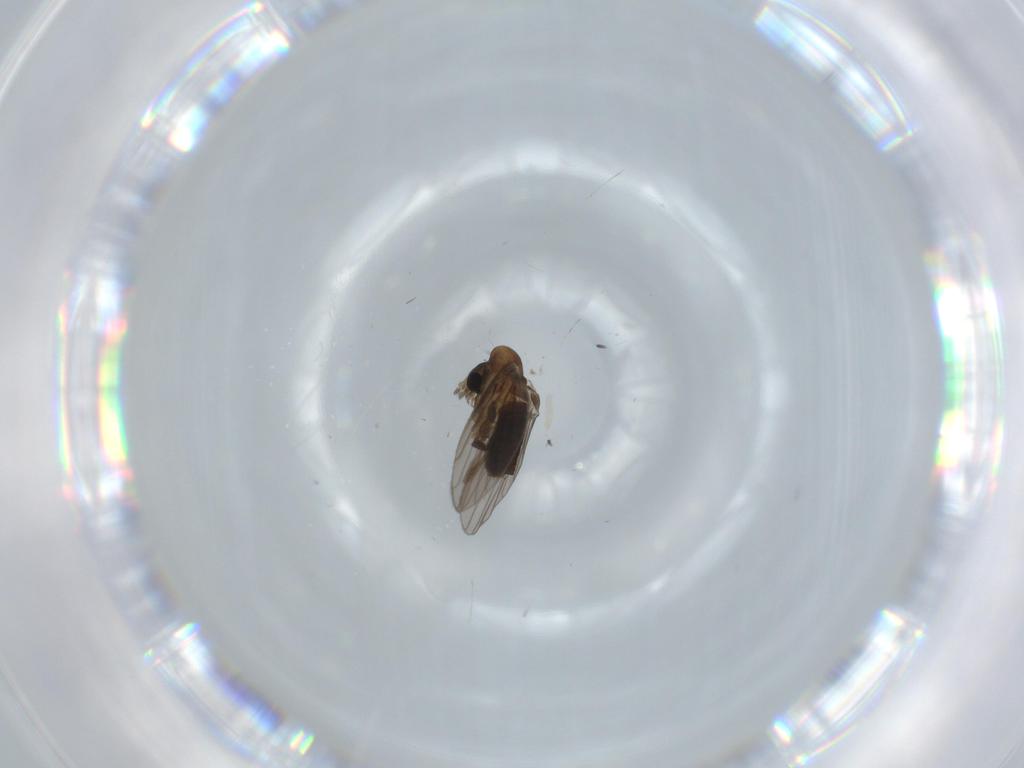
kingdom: Animalia
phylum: Arthropoda
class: Insecta
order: Diptera
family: Psychodidae
